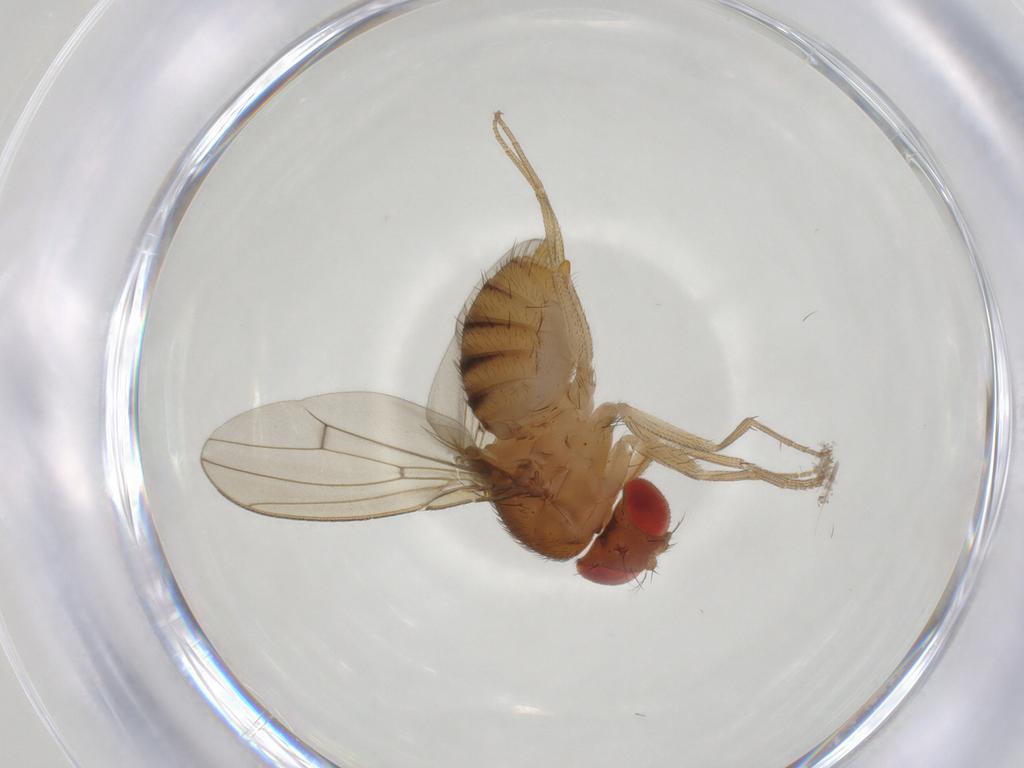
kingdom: Animalia
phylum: Arthropoda
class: Insecta
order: Diptera
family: Drosophilidae
